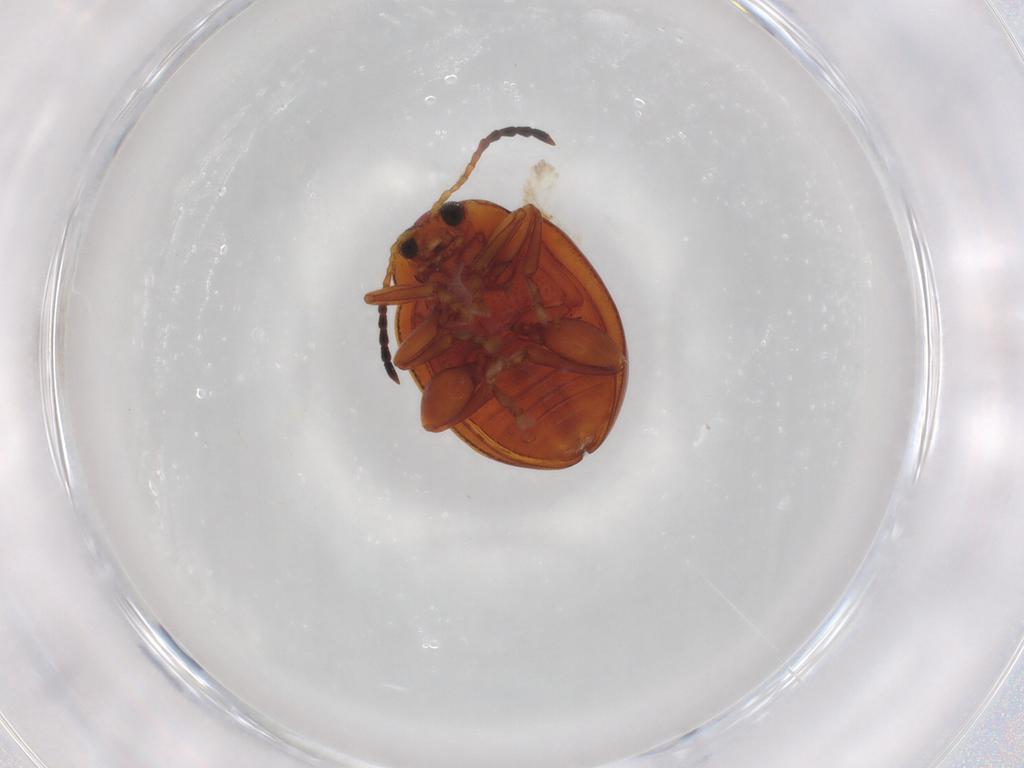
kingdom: Animalia
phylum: Arthropoda
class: Insecta
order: Coleoptera
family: Chrysomelidae
